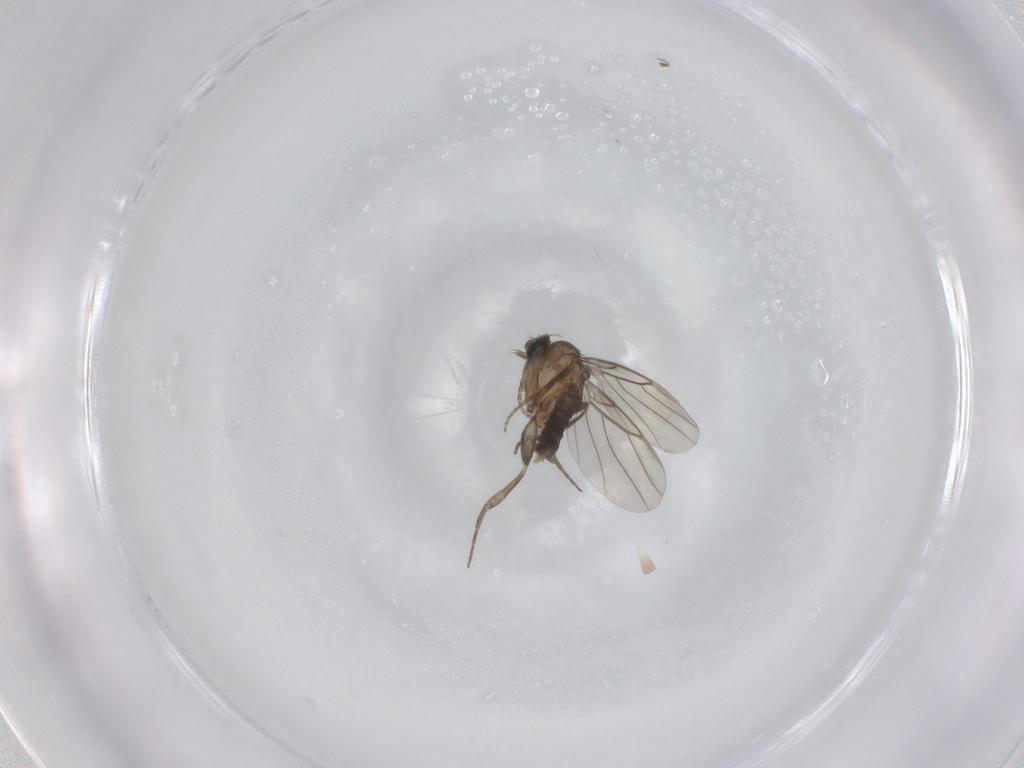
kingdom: Animalia
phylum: Arthropoda
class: Insecta
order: Diptera
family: Phoridae
